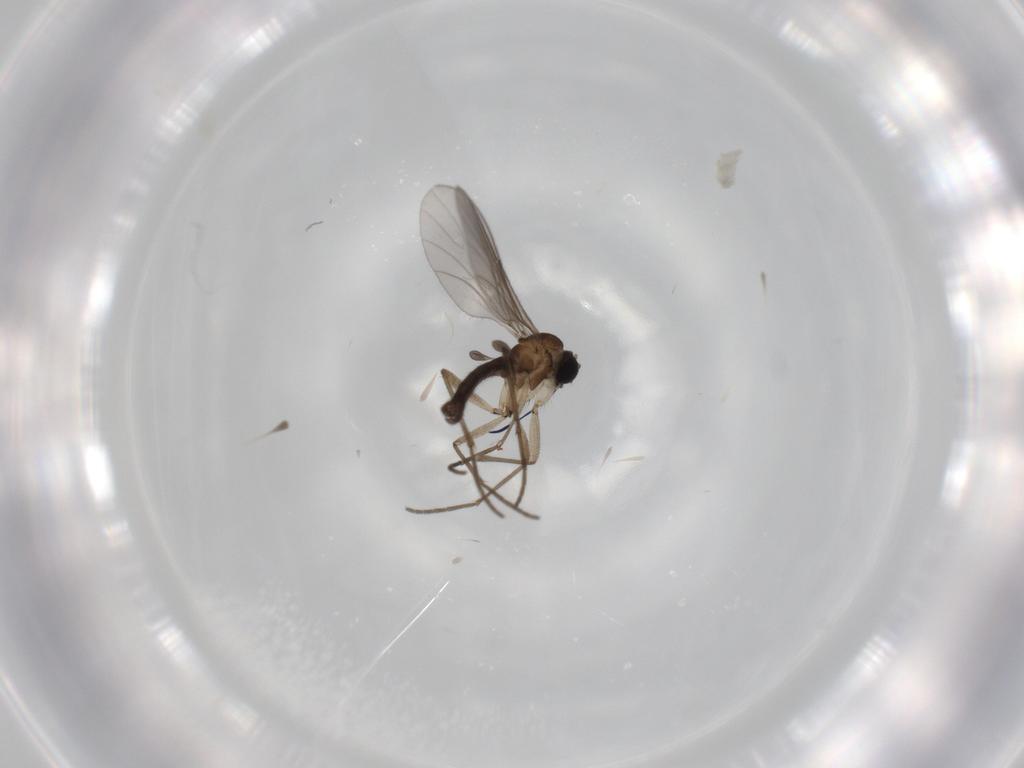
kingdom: Animalia
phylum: Arthropoda
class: Insecta
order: Diptera
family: Sciaridae
